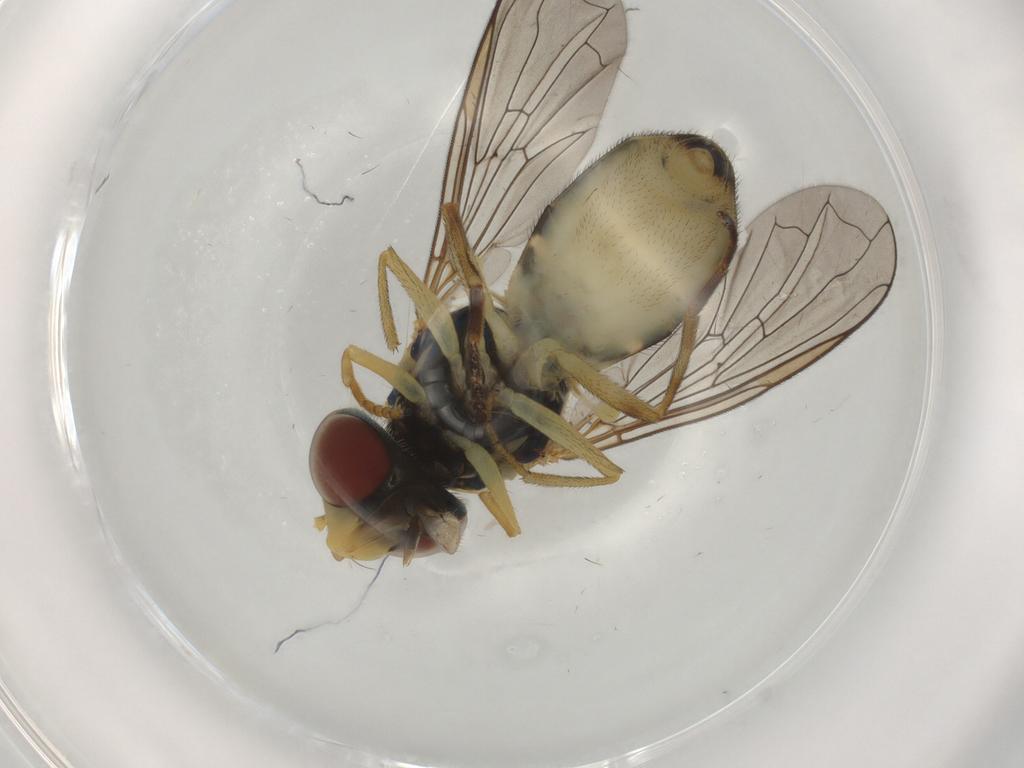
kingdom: Animalia
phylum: Arthropoda
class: Insecta
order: Diptera
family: Syrphidae
